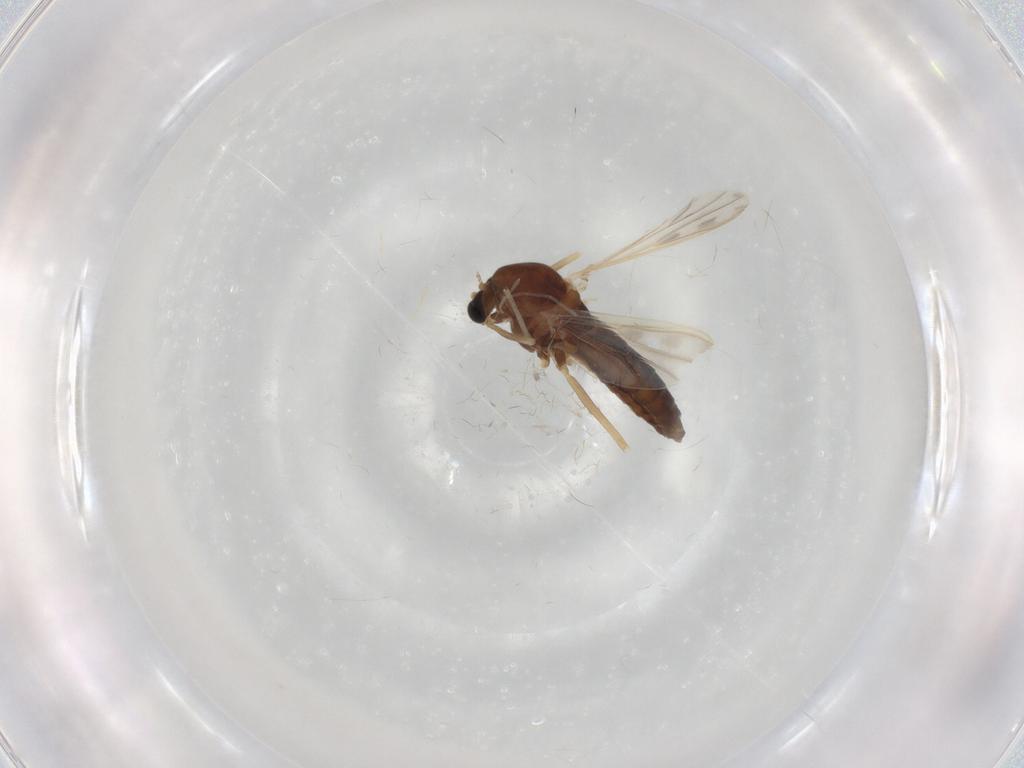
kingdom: Animalia
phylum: Arthropoda
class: Insecta
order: Diptera
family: Chironomidae
